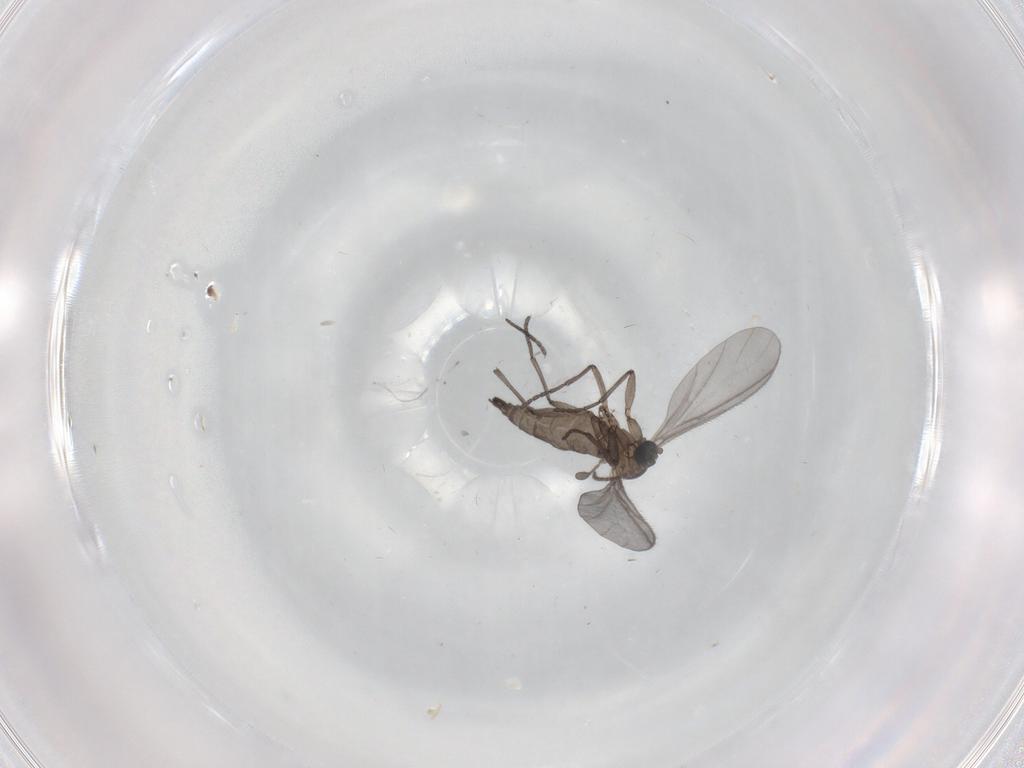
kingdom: Animalia
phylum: Arthropoda
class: Insecta
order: Diptera
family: Sciaridae
